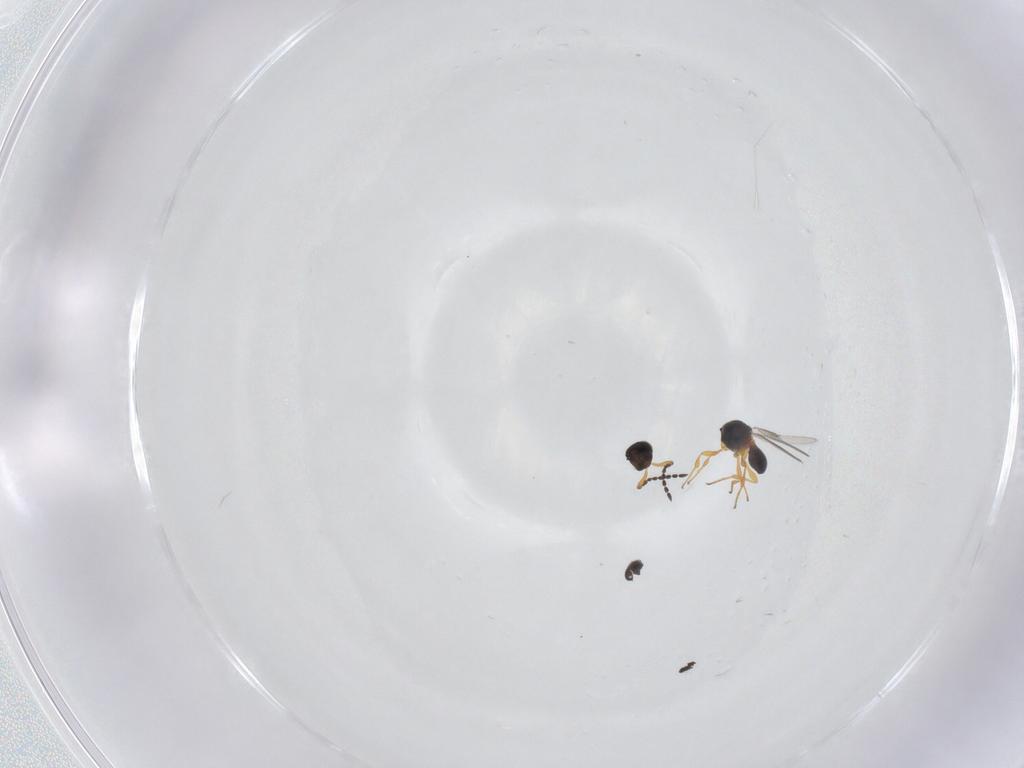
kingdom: Animalia
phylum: Arthropoda
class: Insecta
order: Hymenoptera
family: Platygastridae
